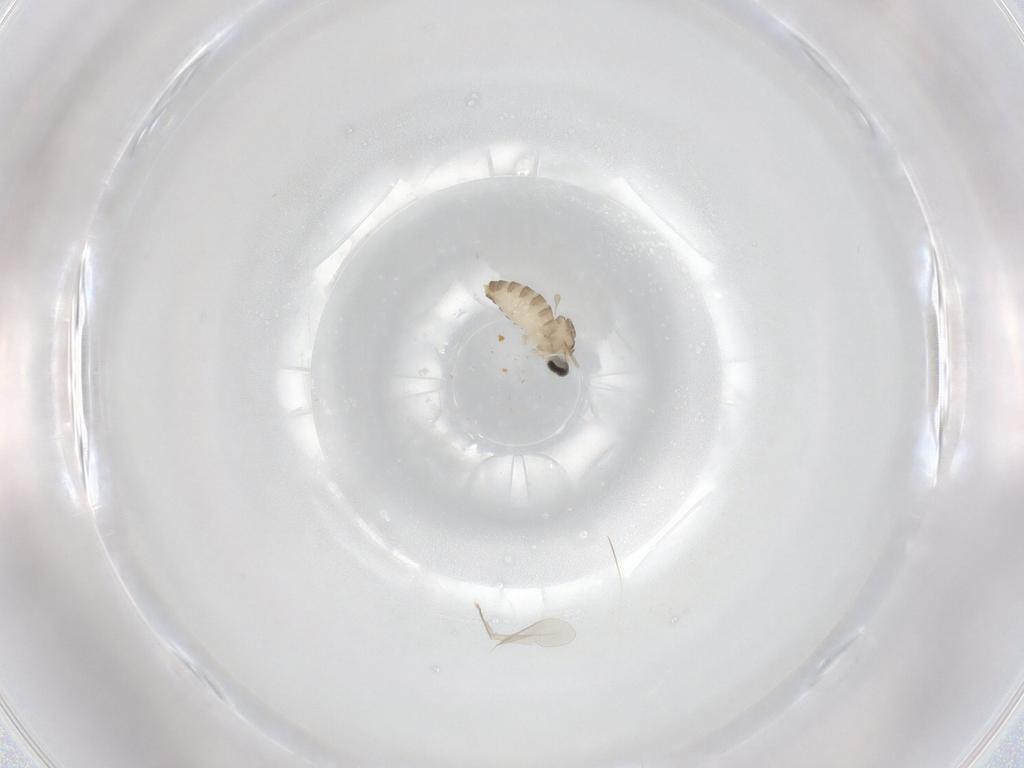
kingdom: Animalia
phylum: Arthropoda
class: Insecta
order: Diptera
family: Cecidomyiidae
